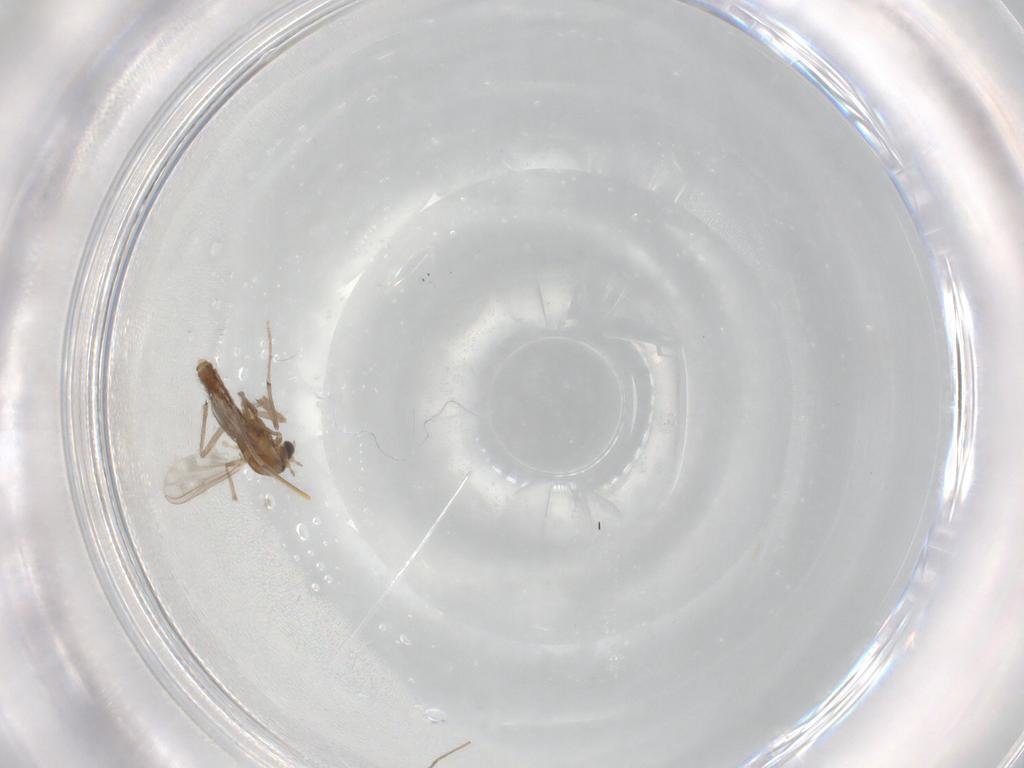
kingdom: Animalia
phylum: Arthropoda
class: Insecta
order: Diptera
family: Chironomidae
